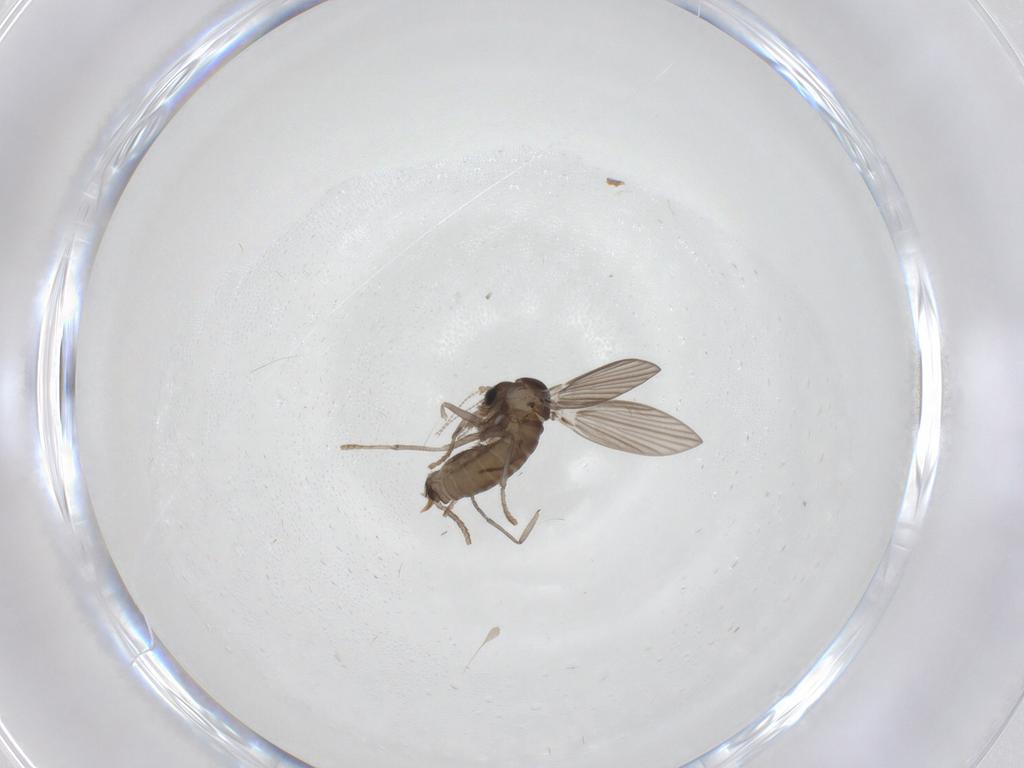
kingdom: Animalia
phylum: Arthropoda
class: Insecta
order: Diptera
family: Psychodidae
